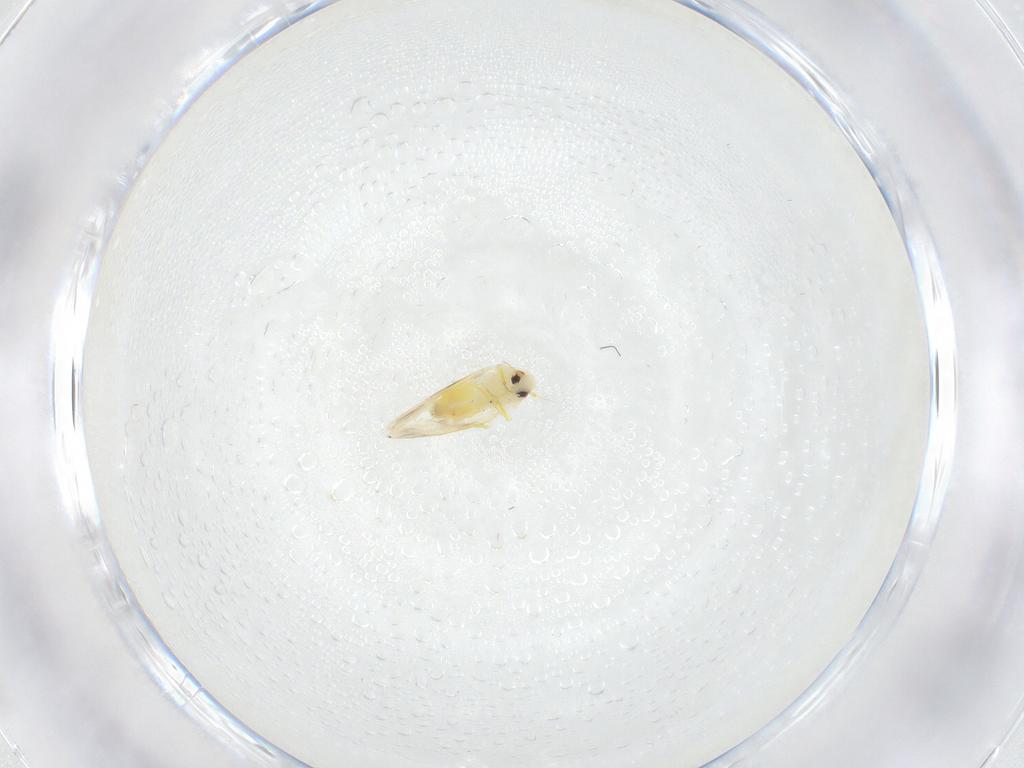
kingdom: Animalia
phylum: Arthropoda
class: Insecta
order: Hemiptera
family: Aleyrodidae
